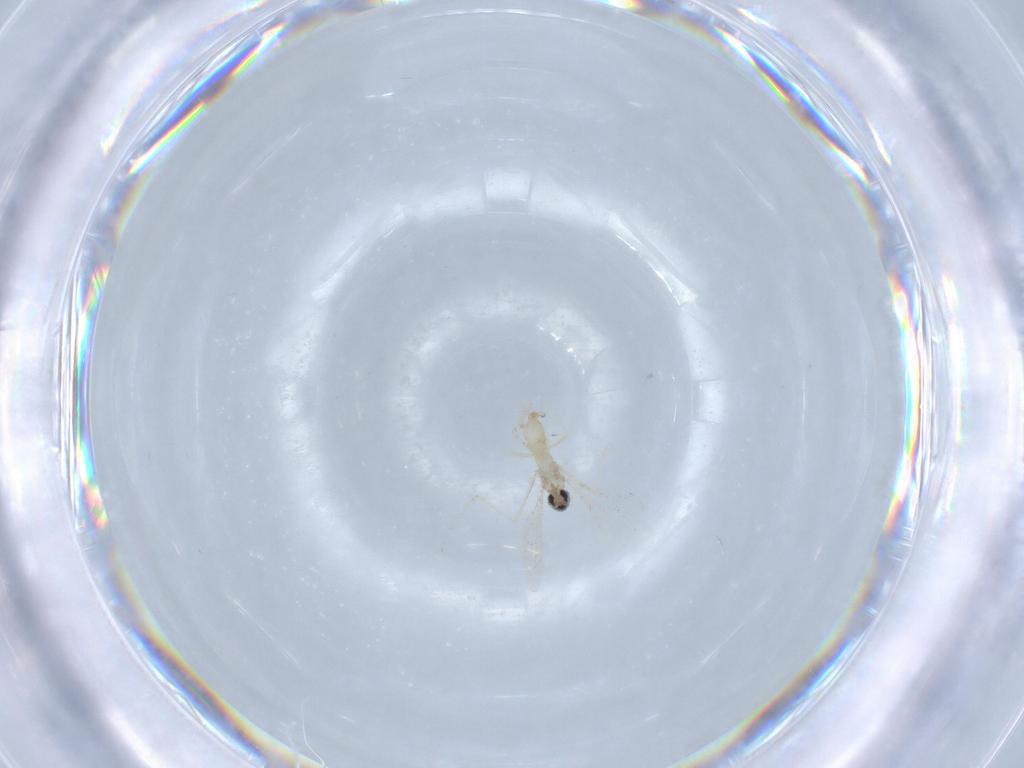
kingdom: Animalia
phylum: Arthropoda
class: Insecta
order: Diptera
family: Cecidomyiidae
